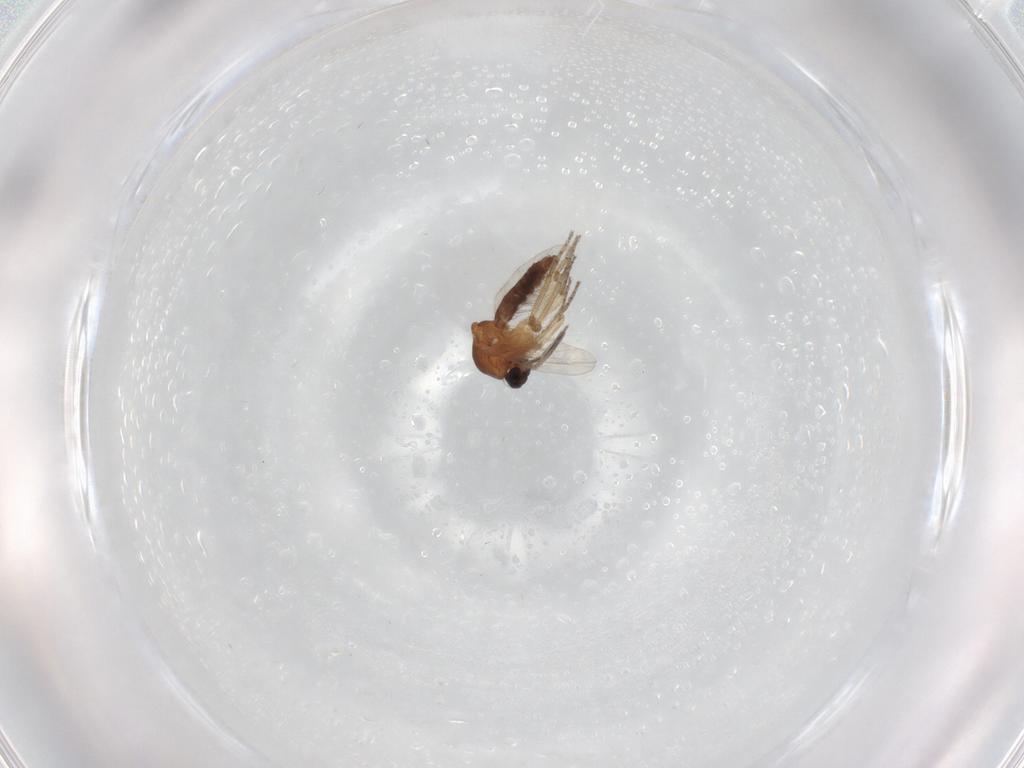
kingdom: Animalia
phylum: Arthropoda
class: Insecta
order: Diptera
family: Ceratopogonidae
